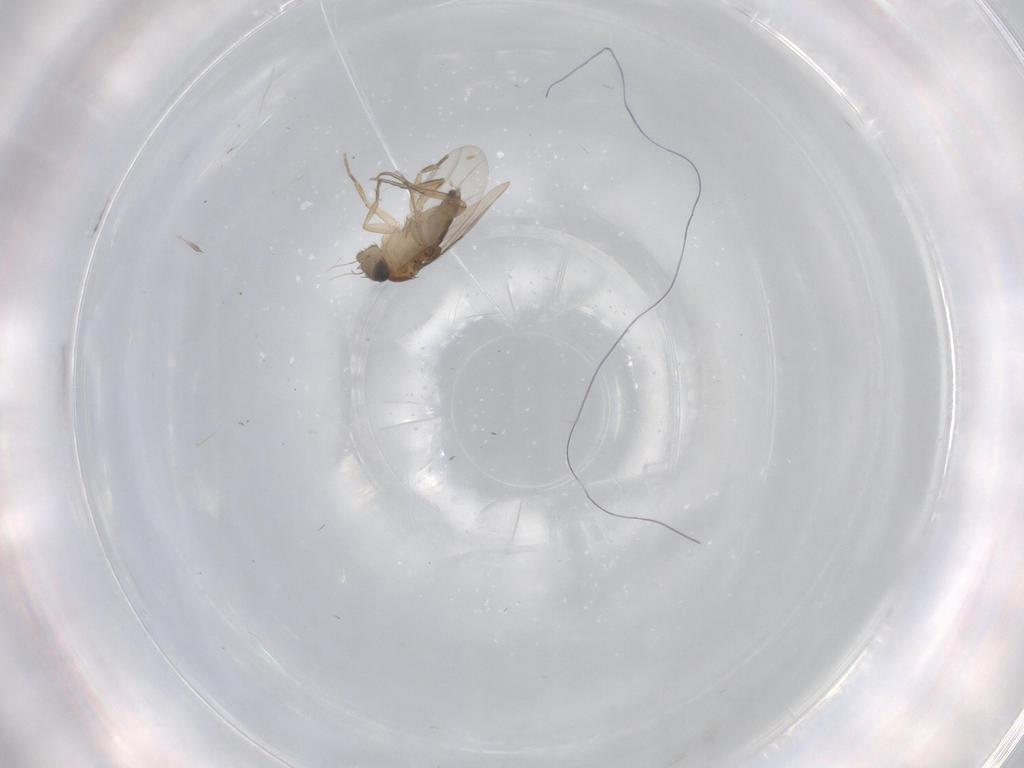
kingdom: Animalia
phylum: Arthropoda
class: Insecta
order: Diptera
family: Phoridae
